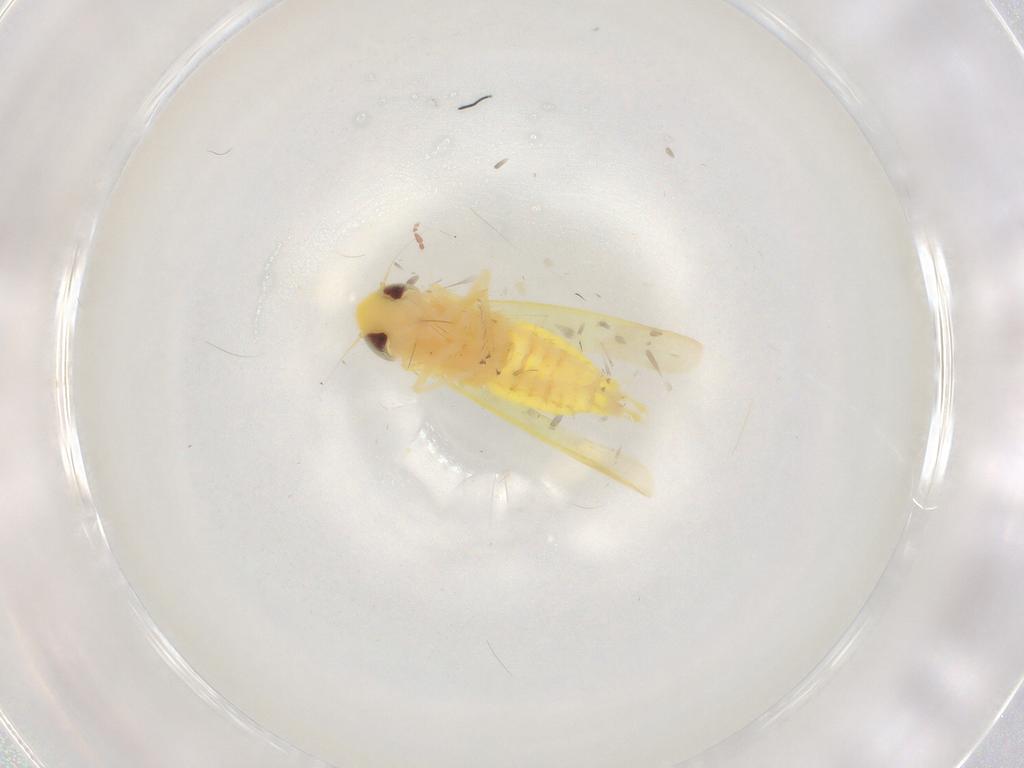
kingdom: Animalia
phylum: Arthropoda
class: Insecta
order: Hemiptera
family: Cicadellidae
